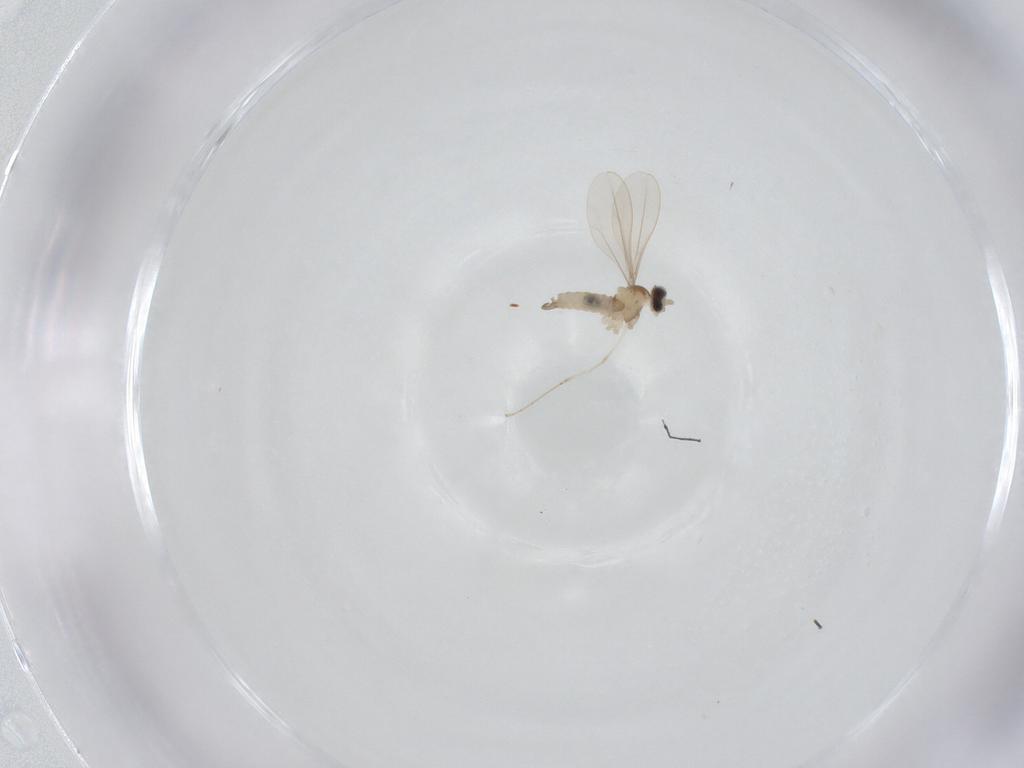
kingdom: Animalia
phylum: Arthropoda
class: Insecta
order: Diptera
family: Cecidomyiidae
